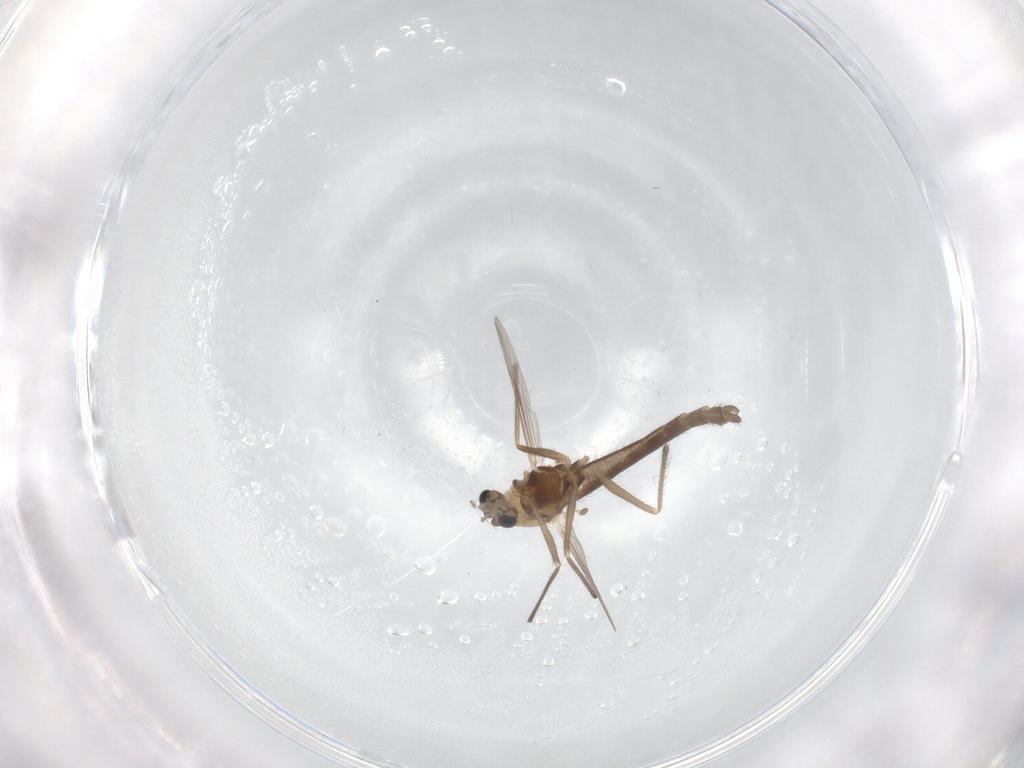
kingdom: Animalia
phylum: Arthropoda
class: Insecta
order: Diptera
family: Chironomidae
